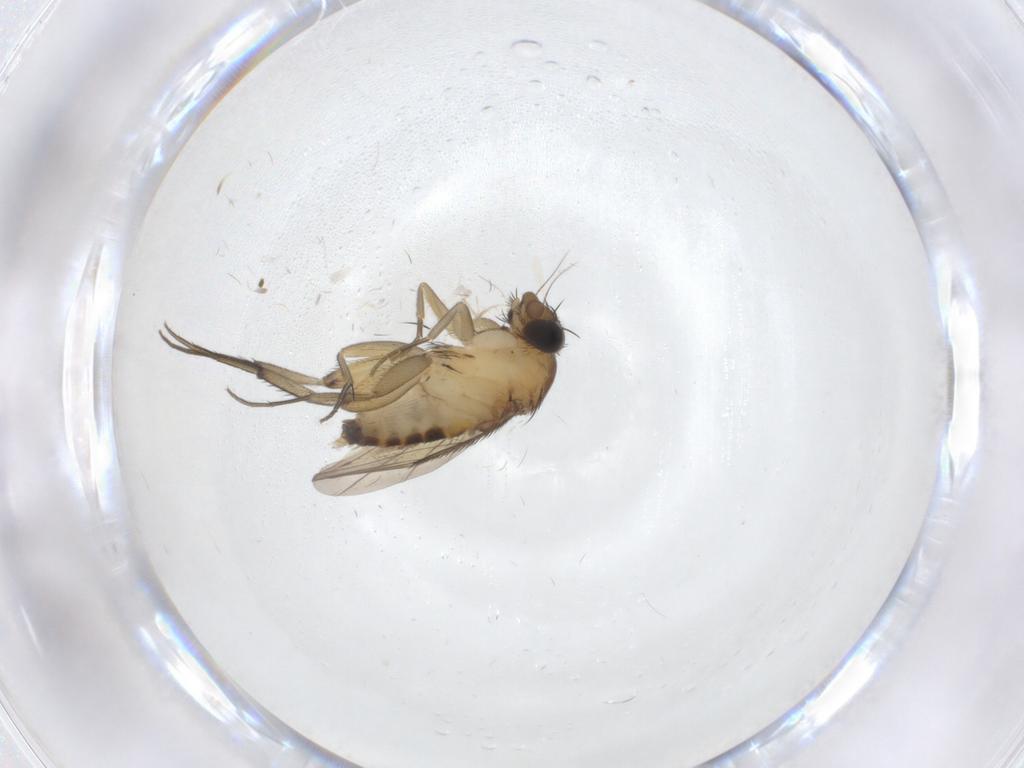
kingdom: Animalia
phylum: Arthropoda
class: Insecta
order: Diptera
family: Phoridae
